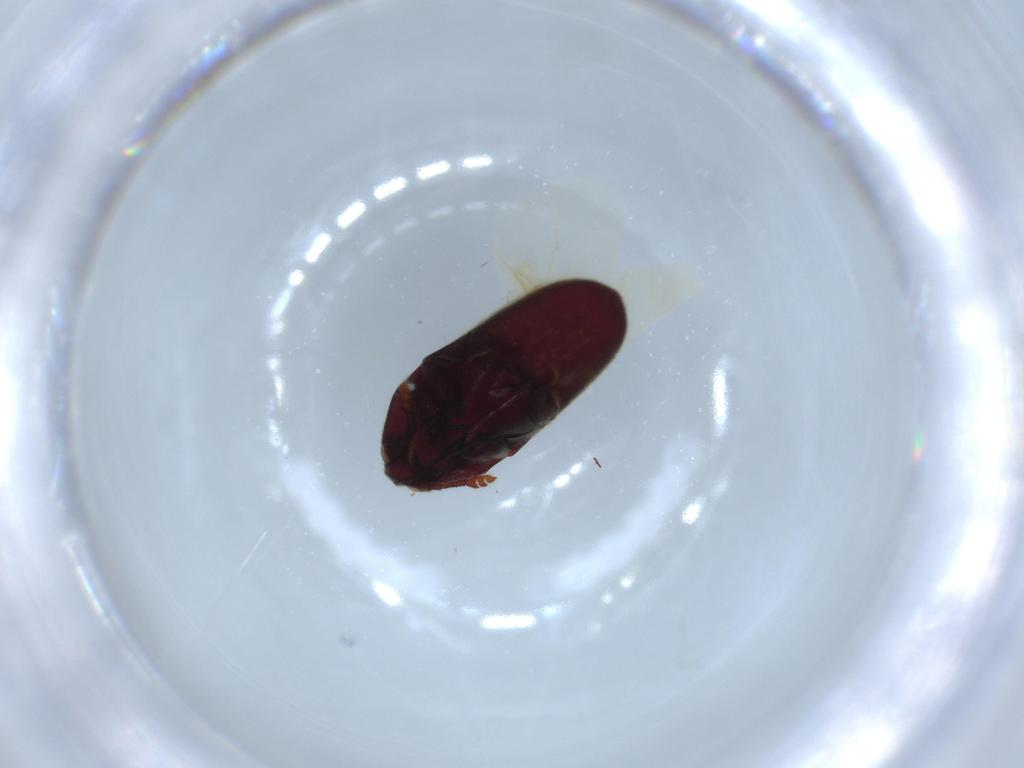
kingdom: Animalia
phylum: Arthropoda
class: Insecta
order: Coleoptera
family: Throscidae
